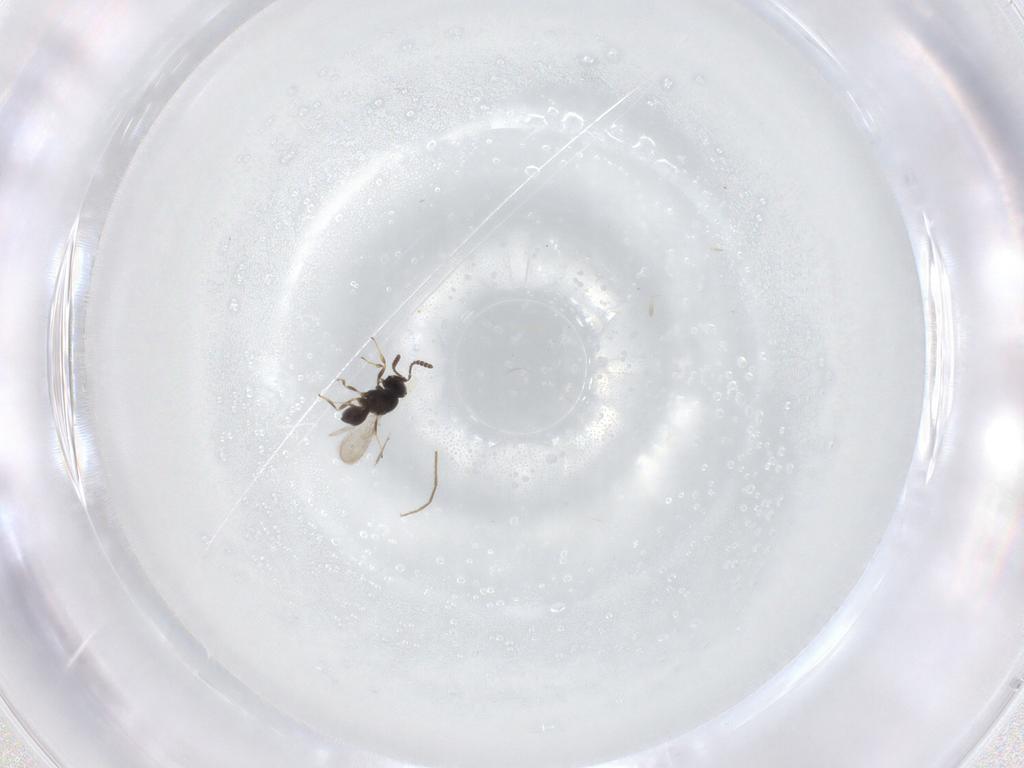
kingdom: Animalia
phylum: Arthropoda
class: Insecta
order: Hymenoptera
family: Scelionidae
